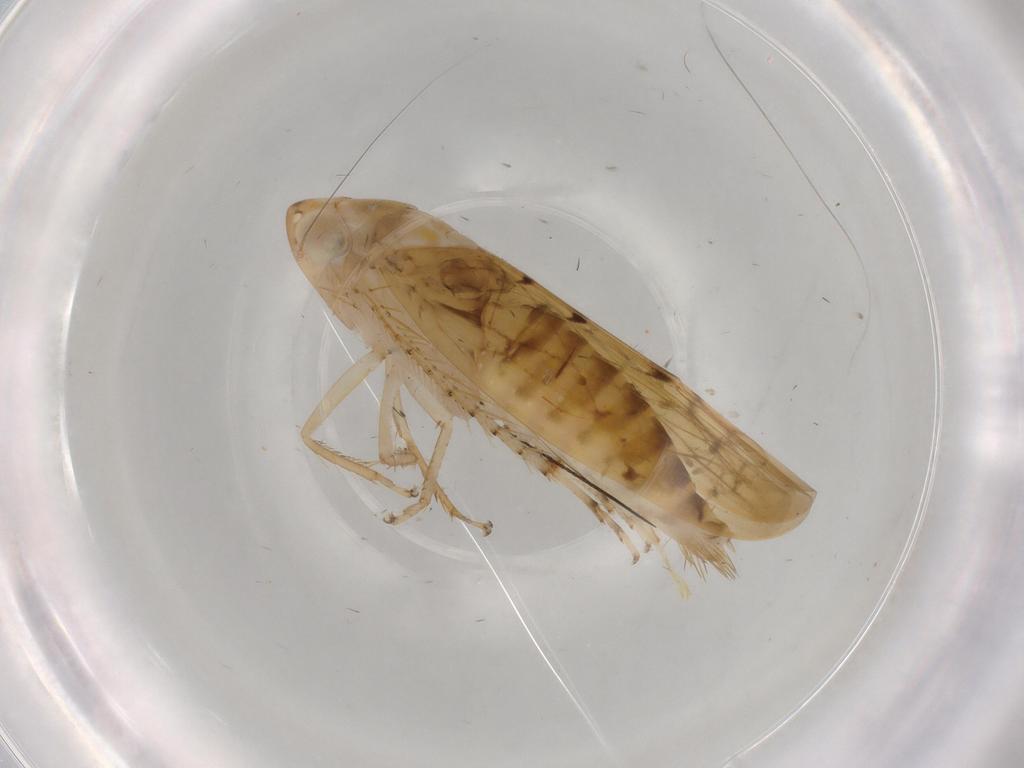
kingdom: Animalia
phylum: Arthropoda
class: Insecta
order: Hemiptera
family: Cicadellidae
